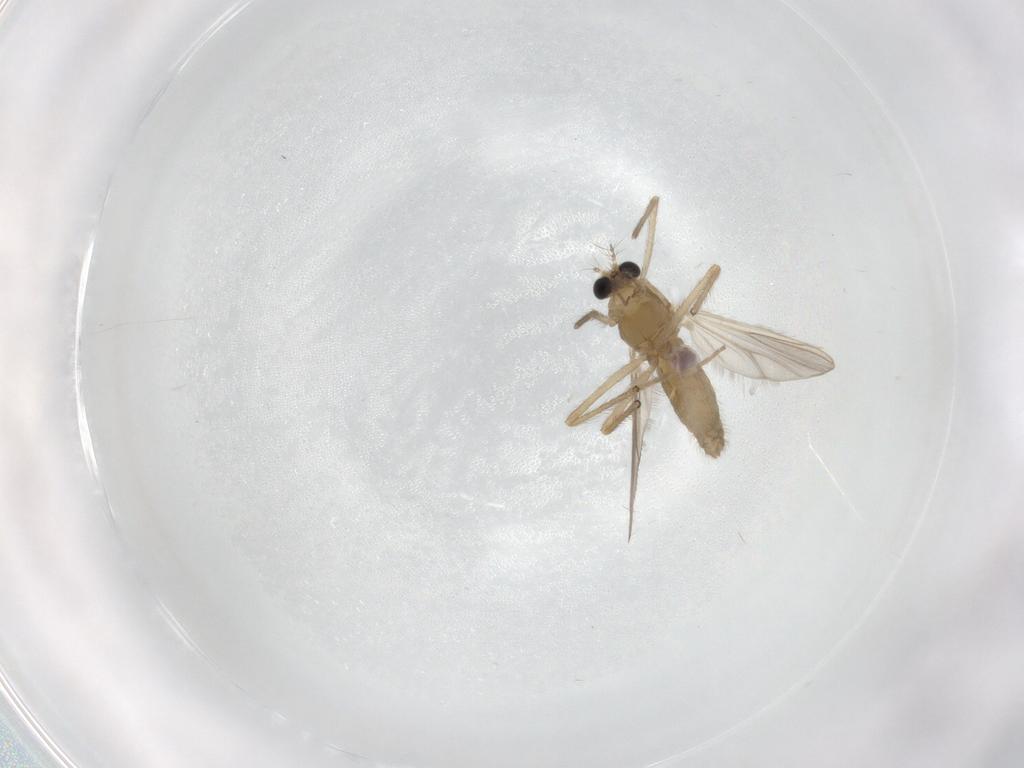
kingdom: Animalia
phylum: Arthropoda
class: Insecta
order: Diptera
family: Chironomidae
